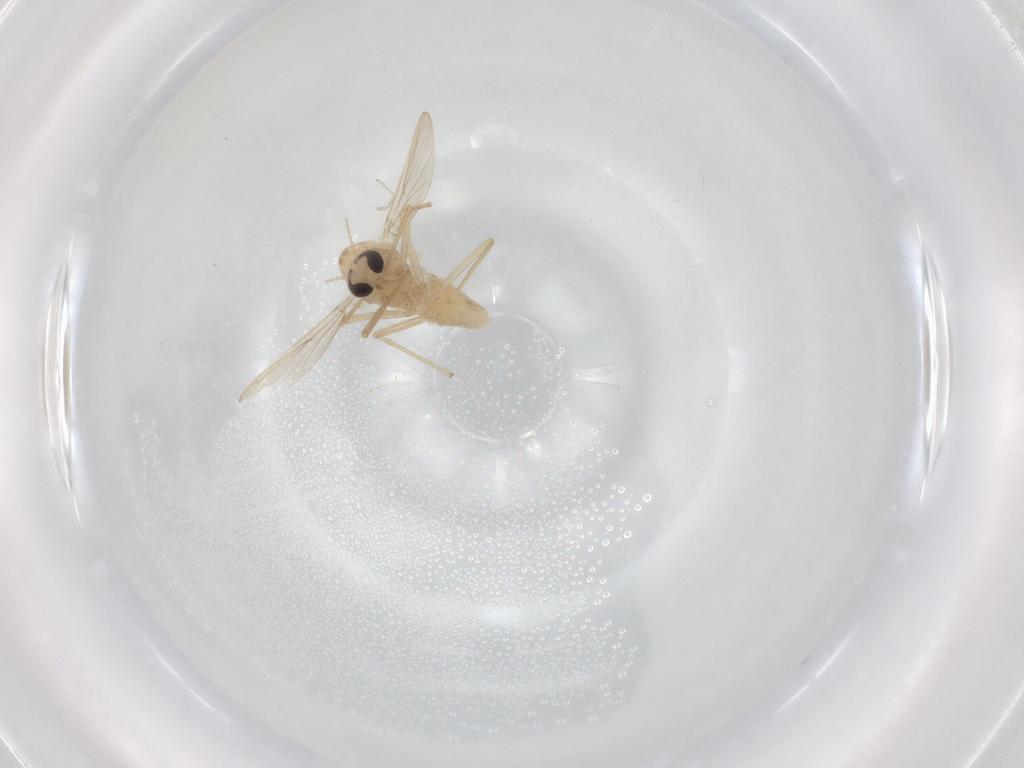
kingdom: Animalia
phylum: Arthropoda
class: Insecta
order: Diptera
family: Chironomidae
